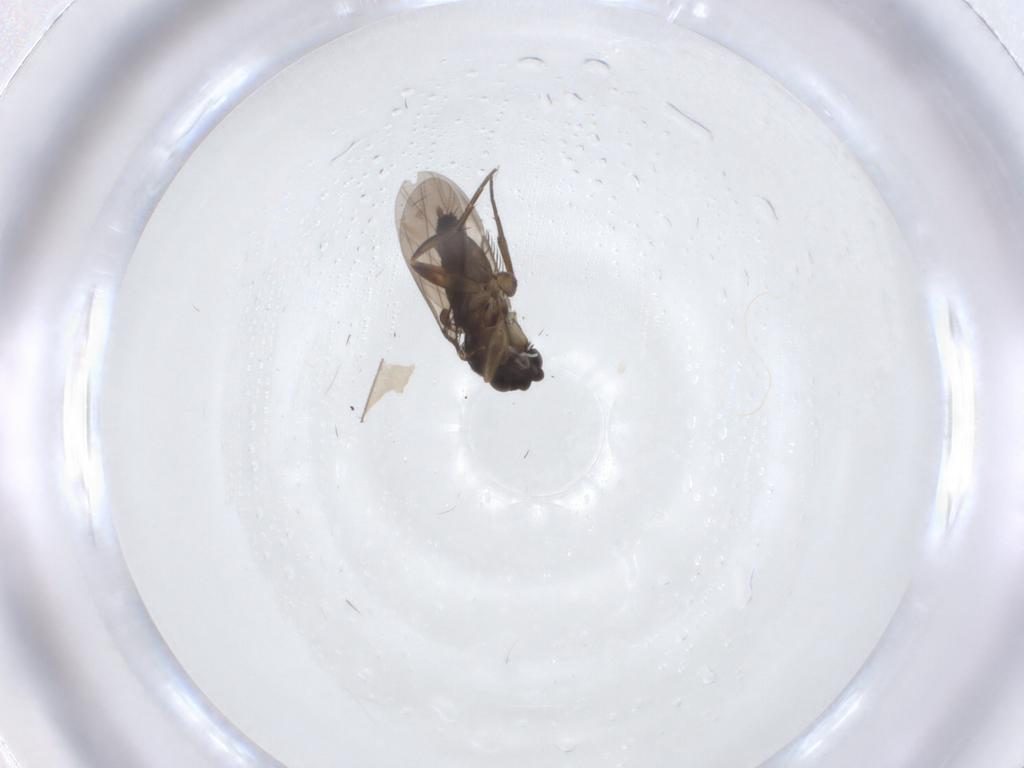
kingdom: Animalia
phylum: Arthropoda
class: Insecta
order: Diptera
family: Phoridae
